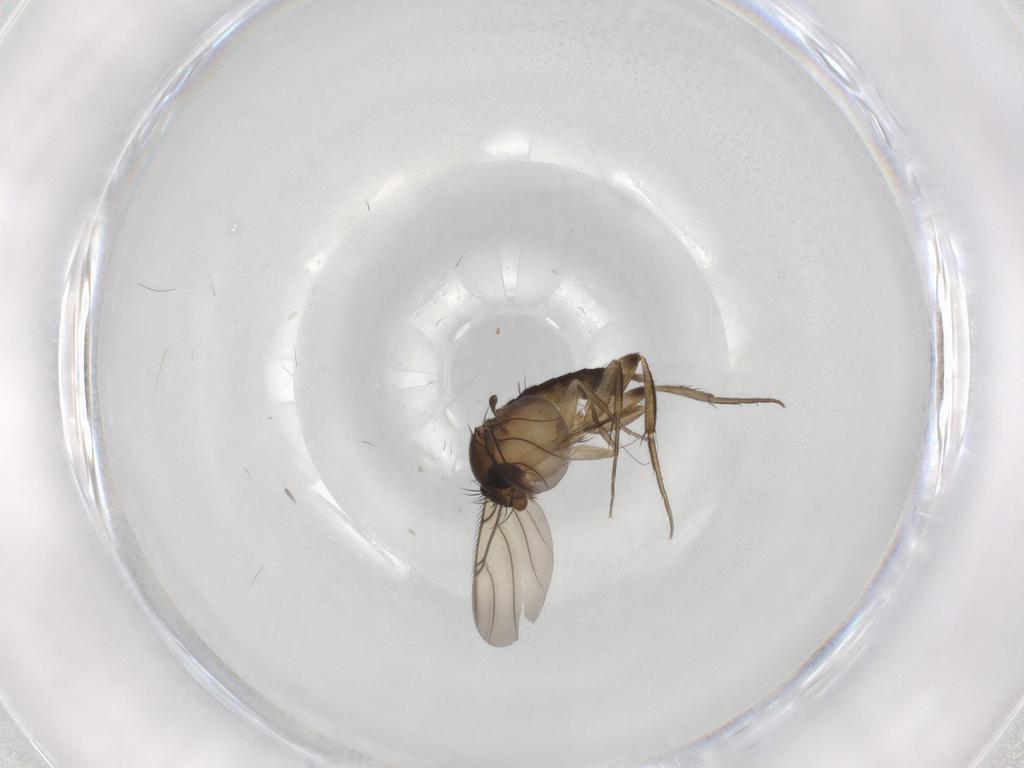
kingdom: Animalia
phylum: Arthropoda
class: Insecta
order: Diptera
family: Sciaridae
